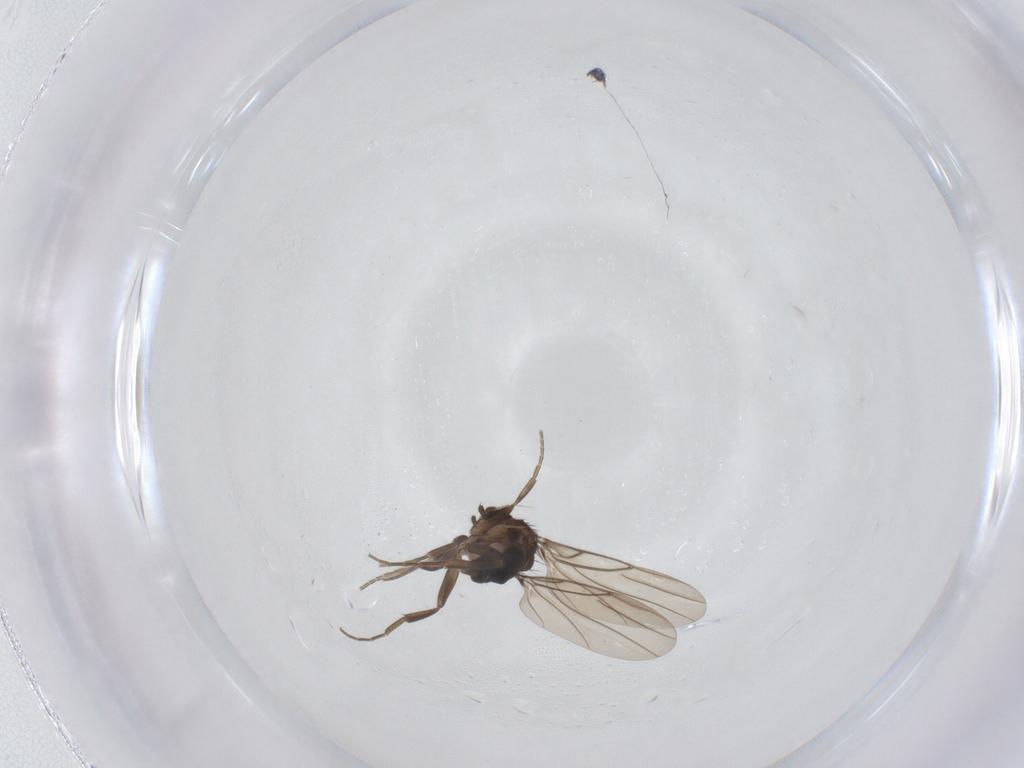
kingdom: Animalia
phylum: Arthropoda
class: Insecta
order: Diptera
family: Phoridae
